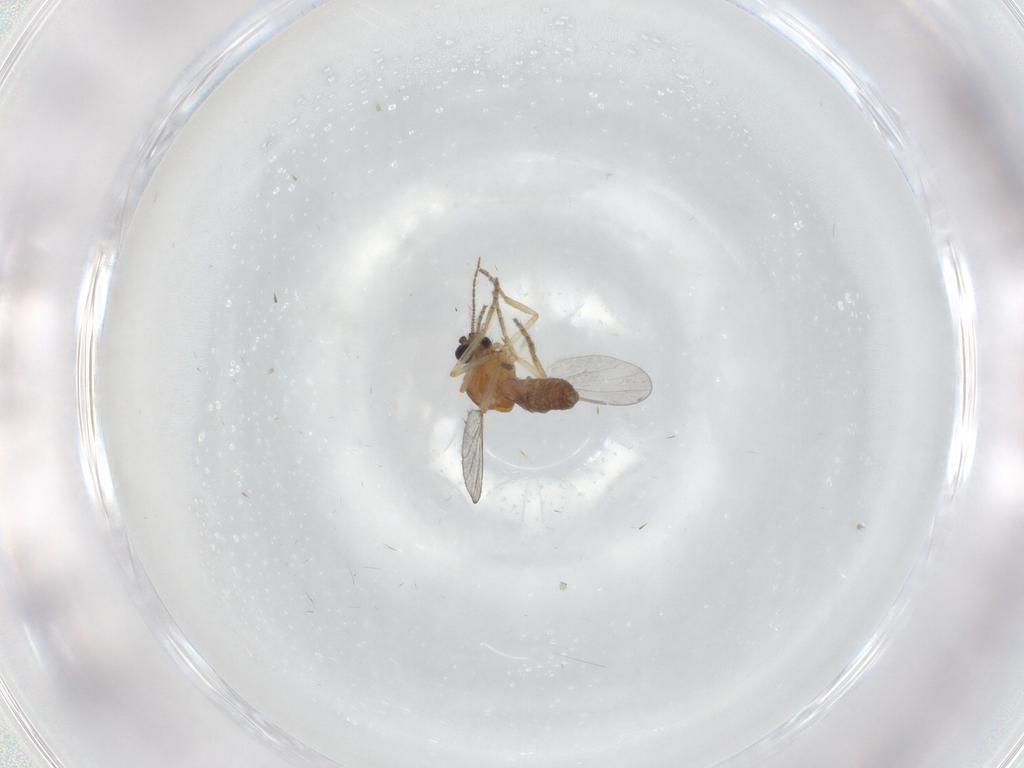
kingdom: Animalia
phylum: Arthropoda
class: Insecta
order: Diptera
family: Ceratopogonidae
